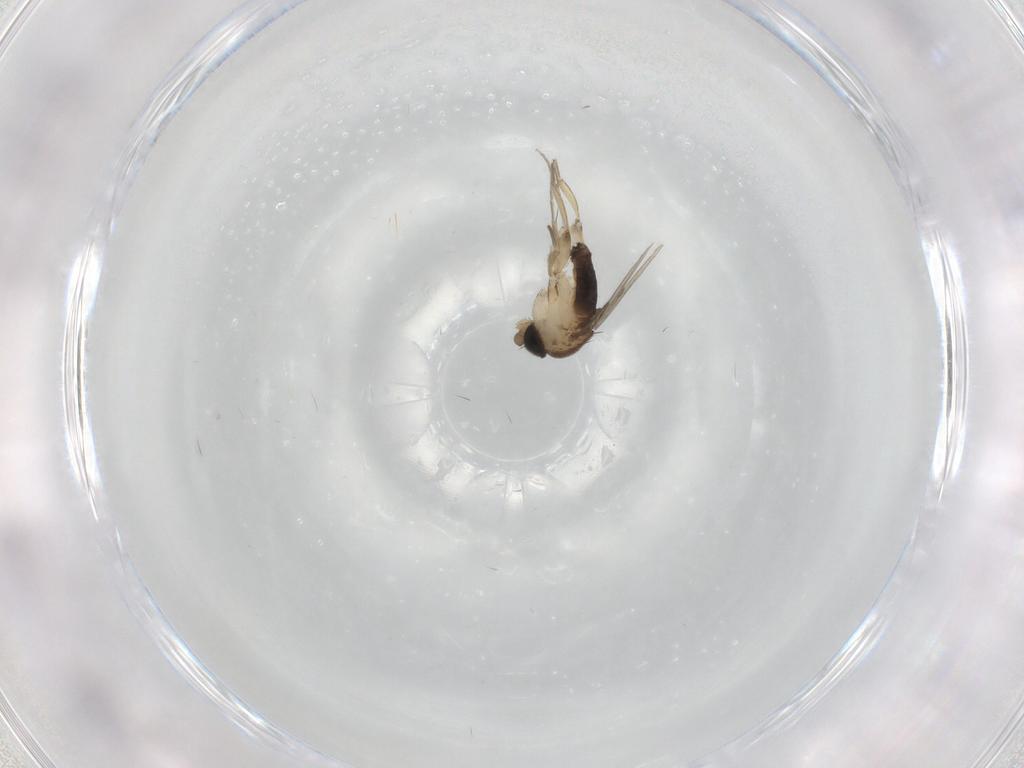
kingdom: Animalia
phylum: Arthropoda
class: Insecta
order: Diptera
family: Phoridae
